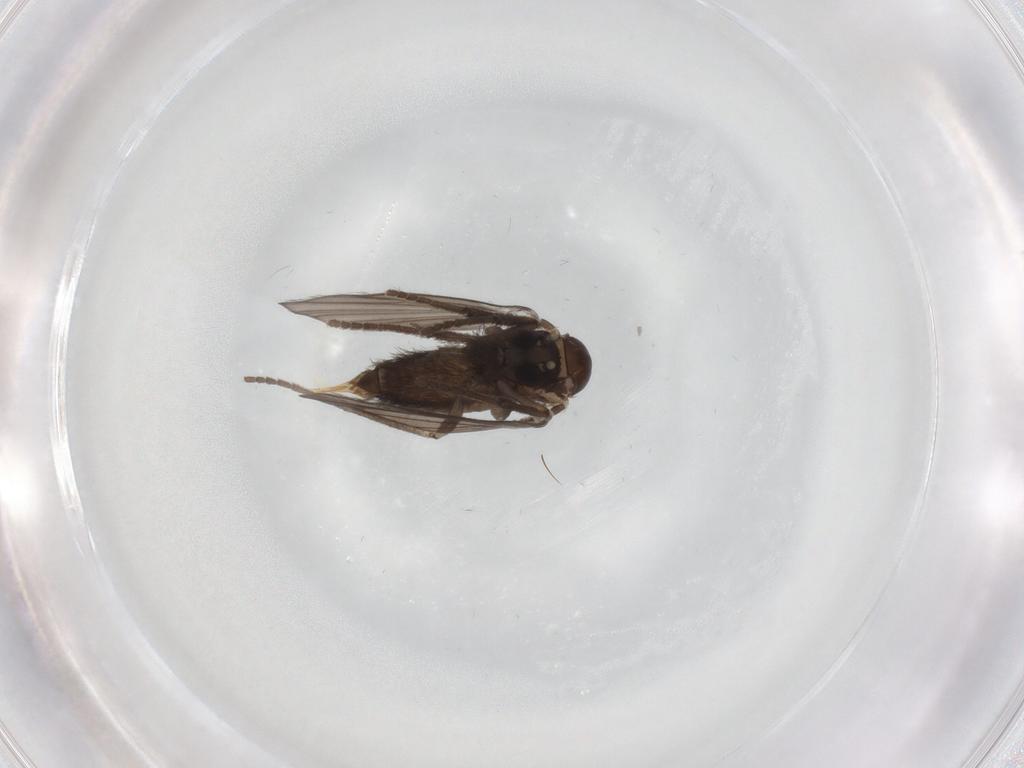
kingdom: Animalia
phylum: Arthropoda
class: Insecta
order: Diptera
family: Psychodidae
